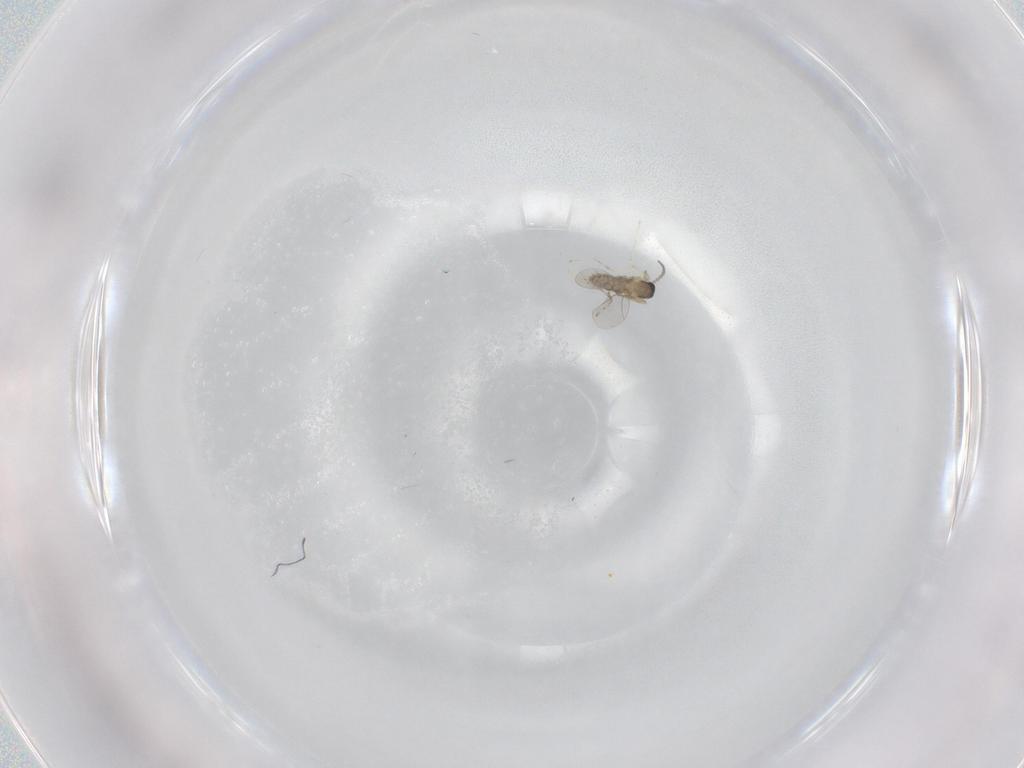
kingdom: Animalia
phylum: Arthropoda
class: Insecta
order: Diptera
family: Cecidomyiidae
